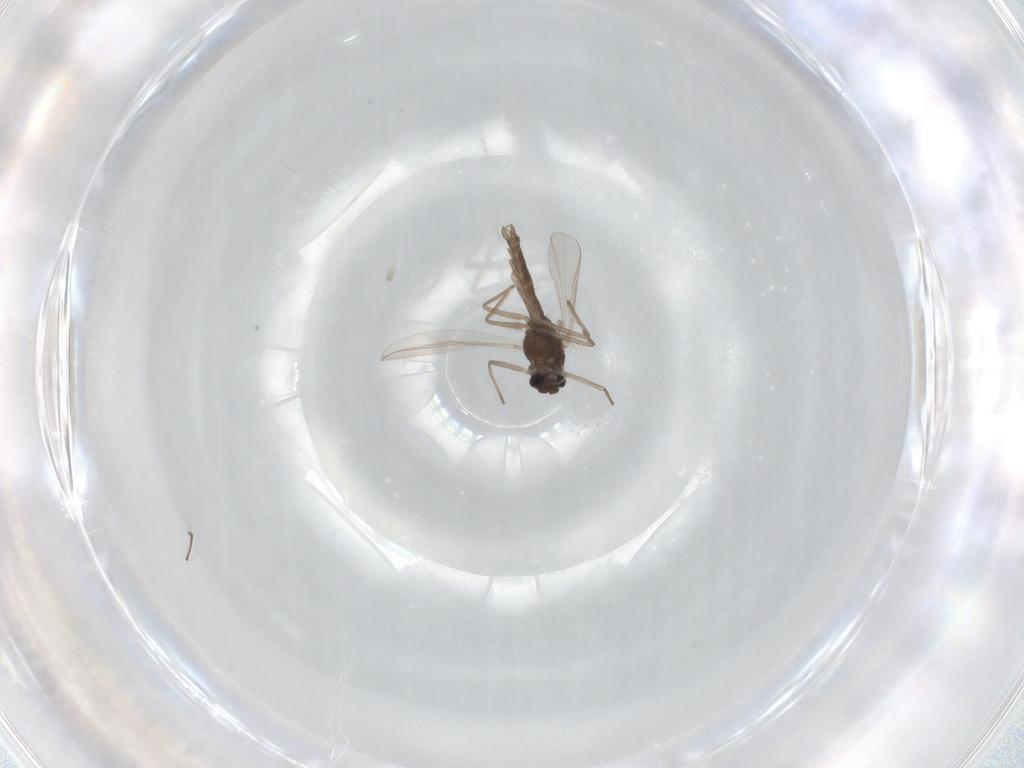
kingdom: Animalia
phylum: Arthropoda
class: Insecta
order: Diptera
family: Chironomidae
